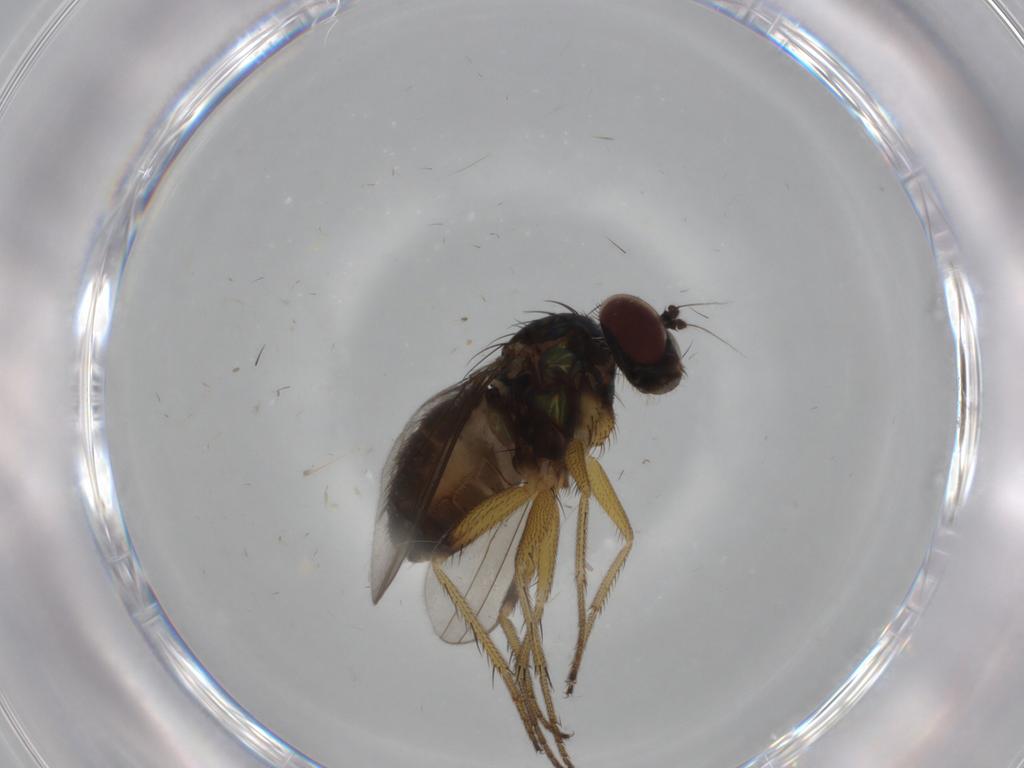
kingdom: Animalia
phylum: Arthropoda
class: Insecta
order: Diptera
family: Dolichopodidae
